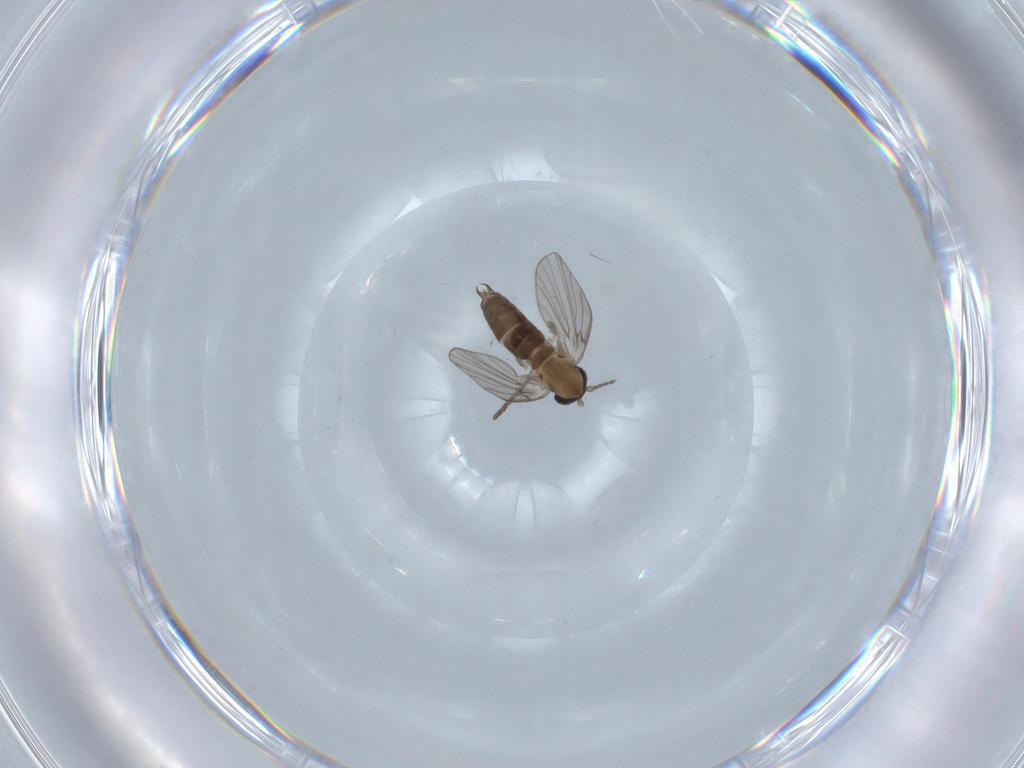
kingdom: Animalia
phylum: Arthropoda
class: Insecta
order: Diptera
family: Psychodidae
